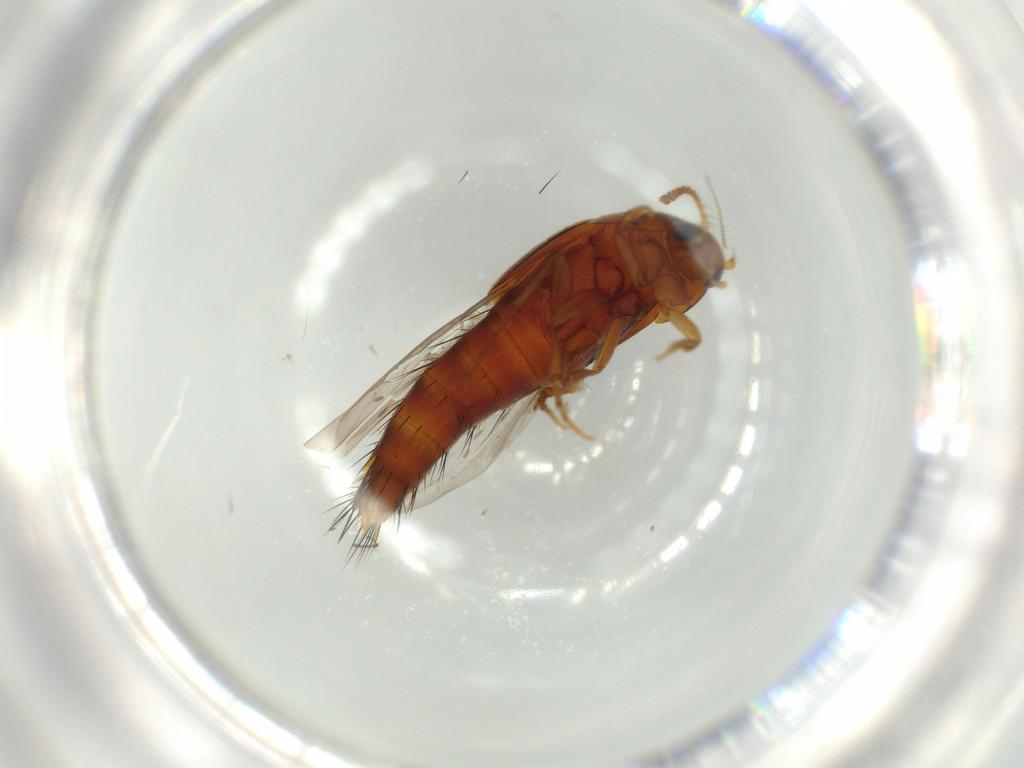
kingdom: Animalia
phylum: Arthropoda
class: Insecta
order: Coleoptera
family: Staphylinidae
